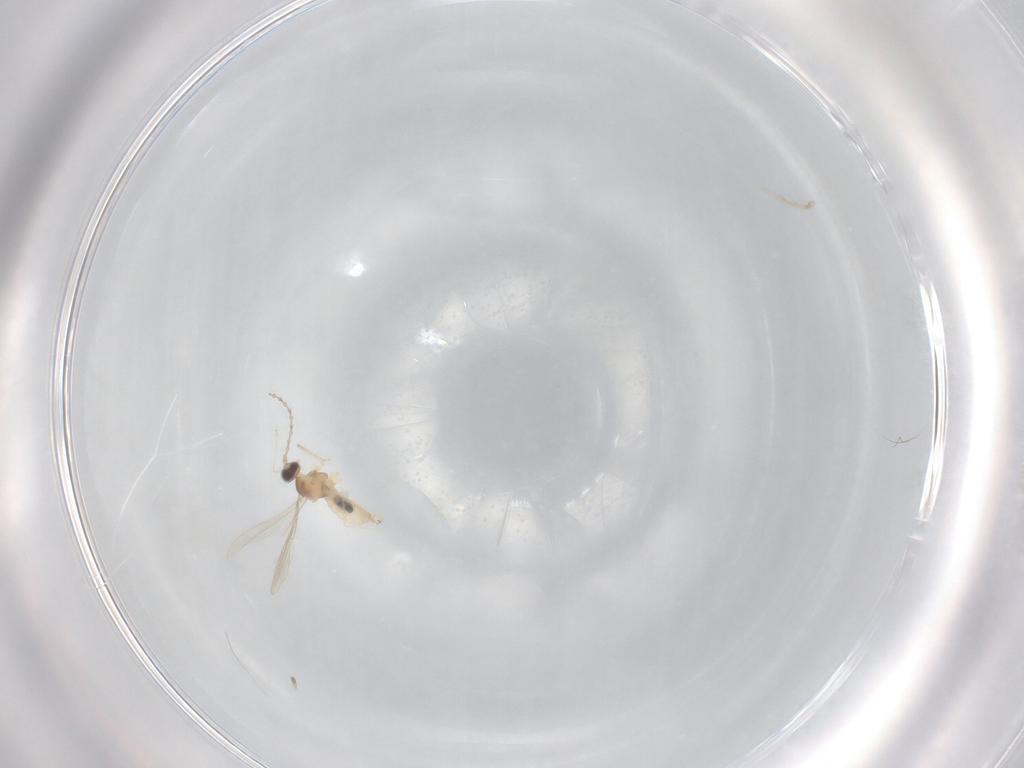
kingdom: Animalia
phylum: Arthropoda
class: Insecta
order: Diptera
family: Cecidomyiidae
